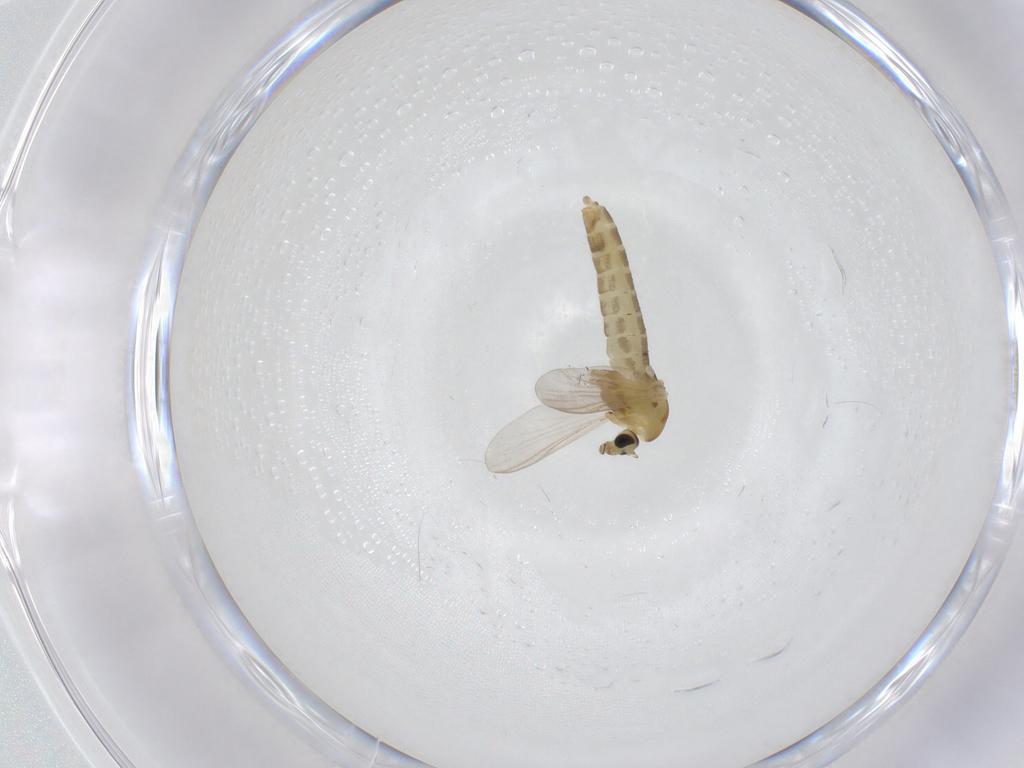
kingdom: Animalia
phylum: Arthropoda
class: Insecta
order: Diptera
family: Chironomidae
